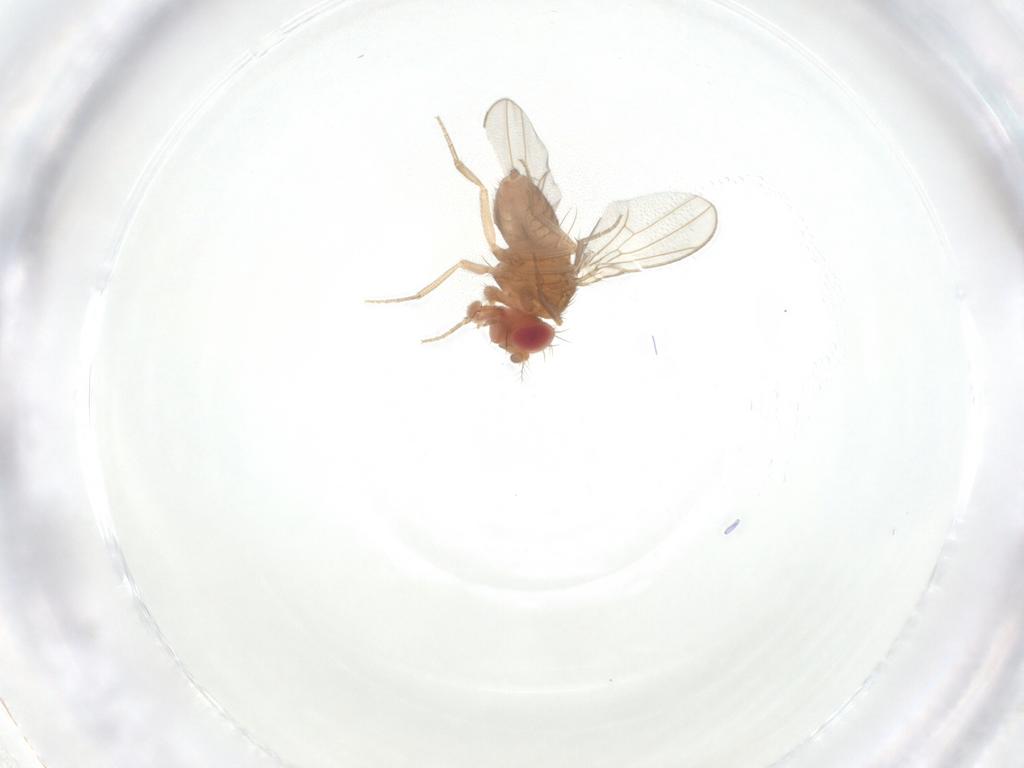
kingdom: Animalia
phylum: Arthropoda
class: Insecta
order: Diptera
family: Drosophilidae
